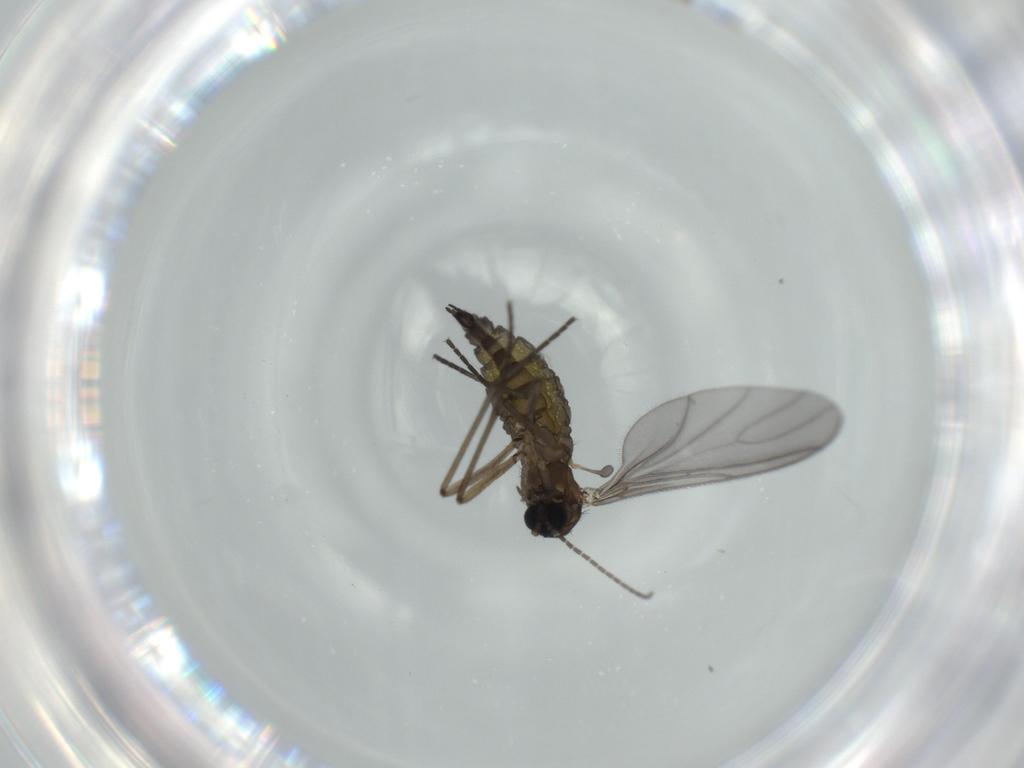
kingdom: Animalia
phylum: Arthropoda
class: Insecta
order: Diptera
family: Sciaridae
